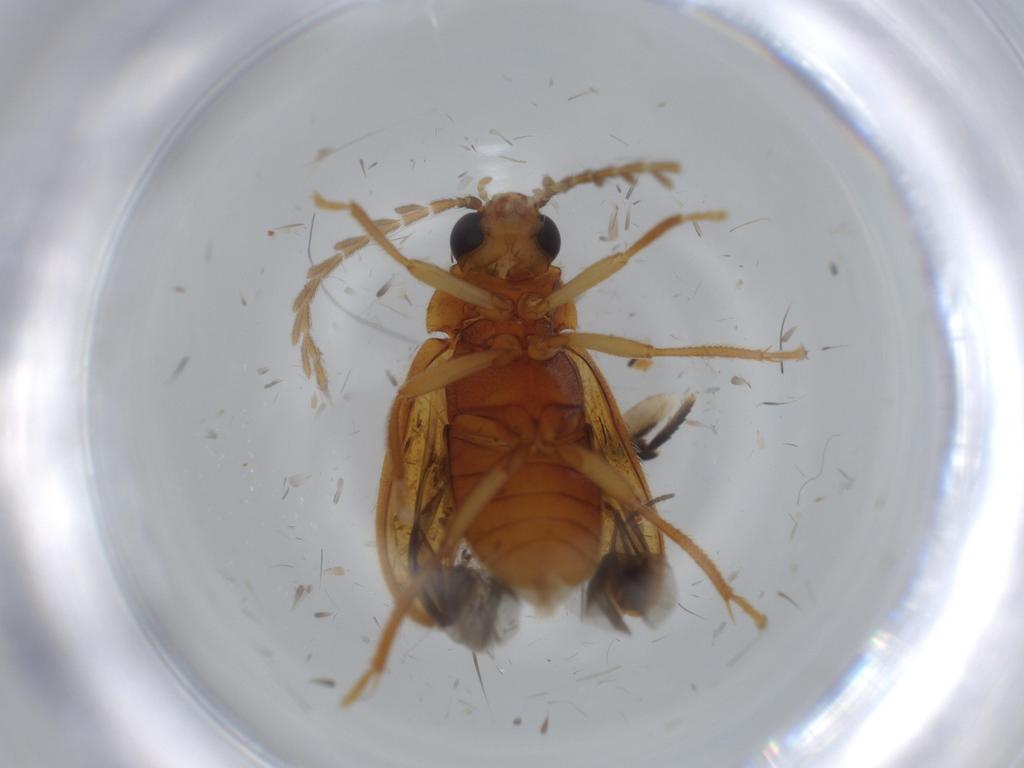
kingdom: Animalia
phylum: Arthropoda
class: Insecta
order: Coleoptera
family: Ptilodactylidae
